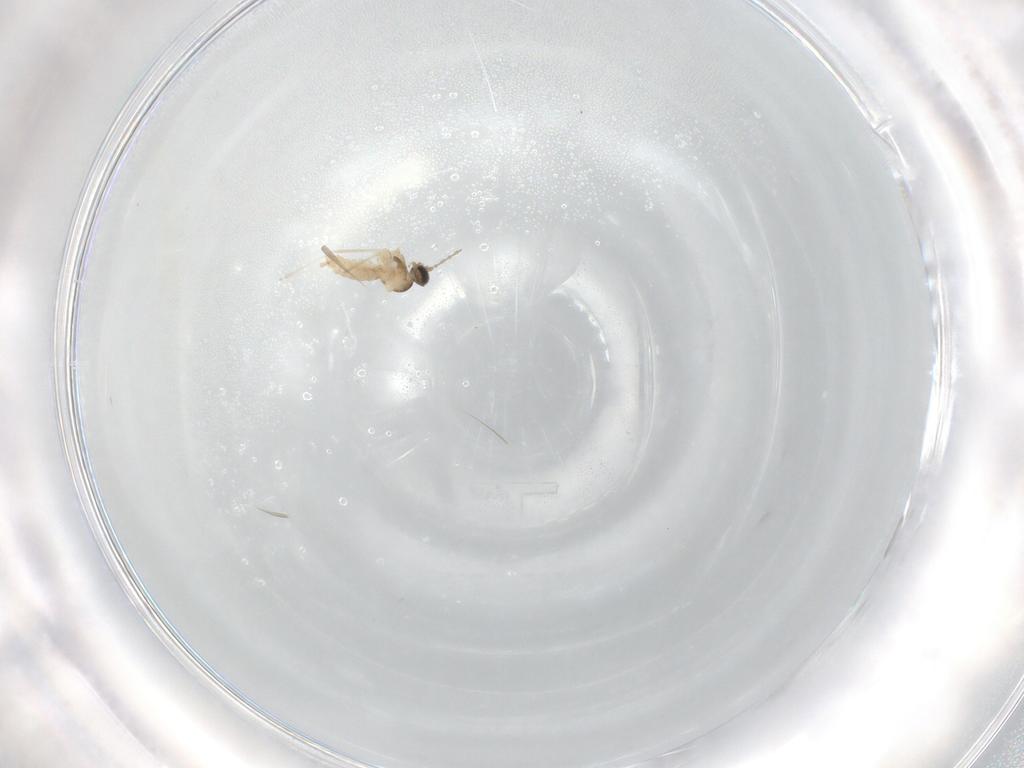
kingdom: Animalia
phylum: Arthropoda
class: Insecta
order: Diptera
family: Cecidomyiidae
